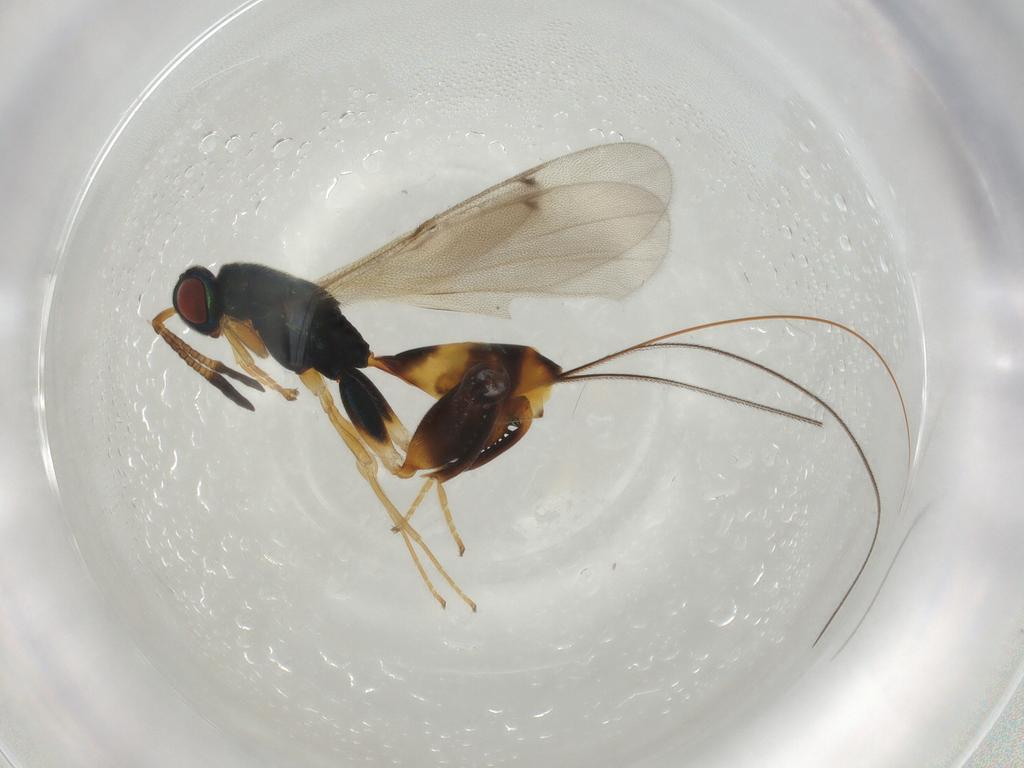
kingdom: Animalia
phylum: Arthropoda
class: Insecta
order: Hymenoptera
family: Torymidae
